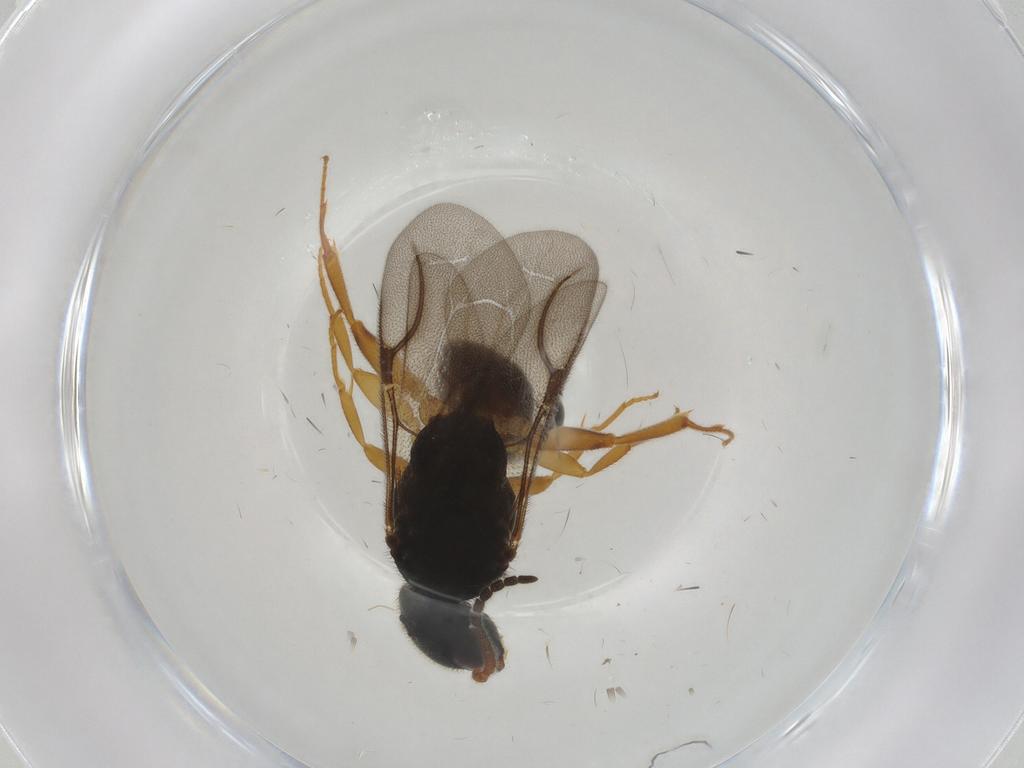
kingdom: Animalia
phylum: Arthropoda
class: Insecta
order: Hymenoptera
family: Bethylidae
